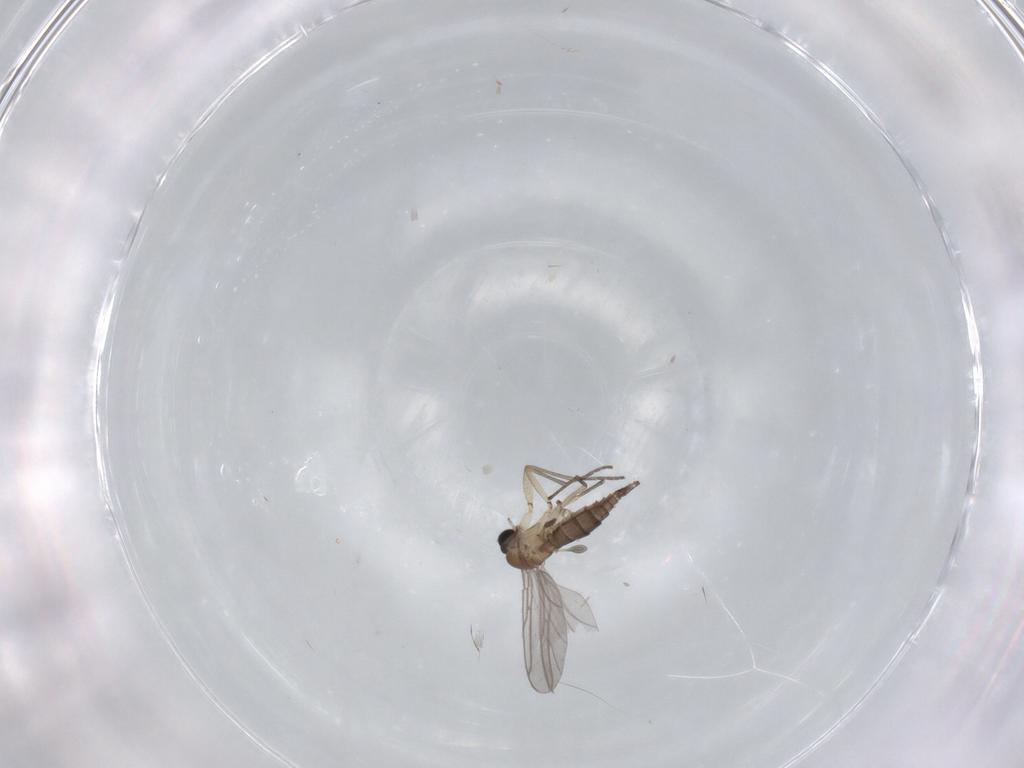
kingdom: Animalia
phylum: Arthropoda
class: Insecta
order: Diptera
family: Sciaridae
